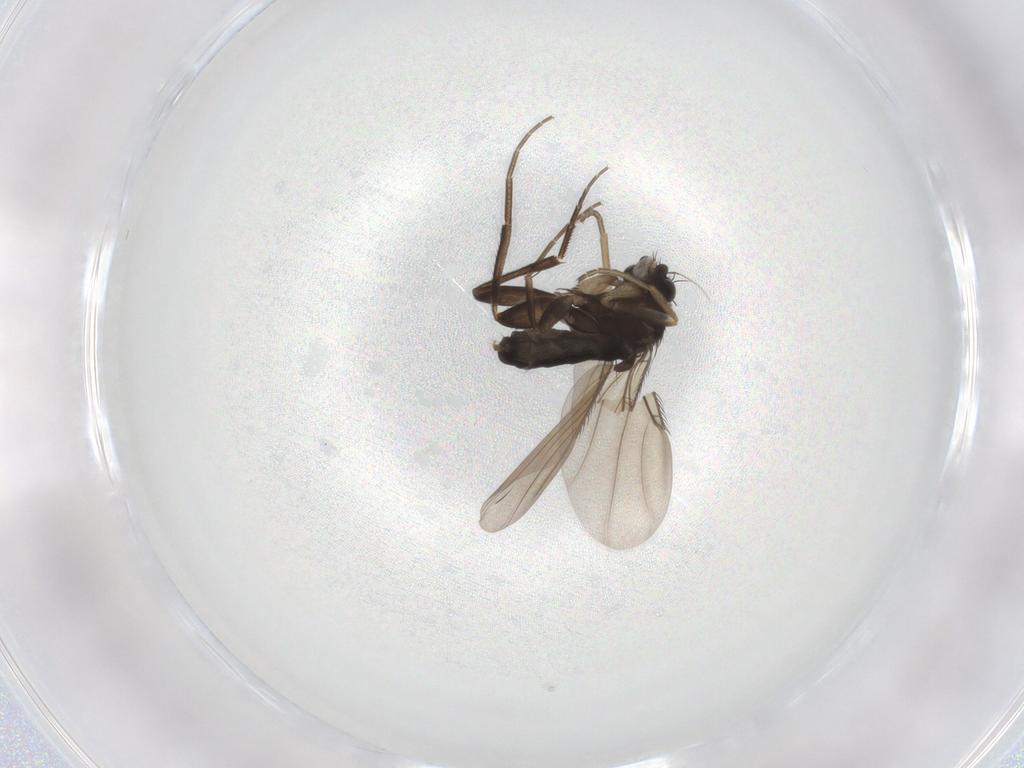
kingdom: Animalia
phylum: Arthropoda
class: Insecta
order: Diptera
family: Phoridae
